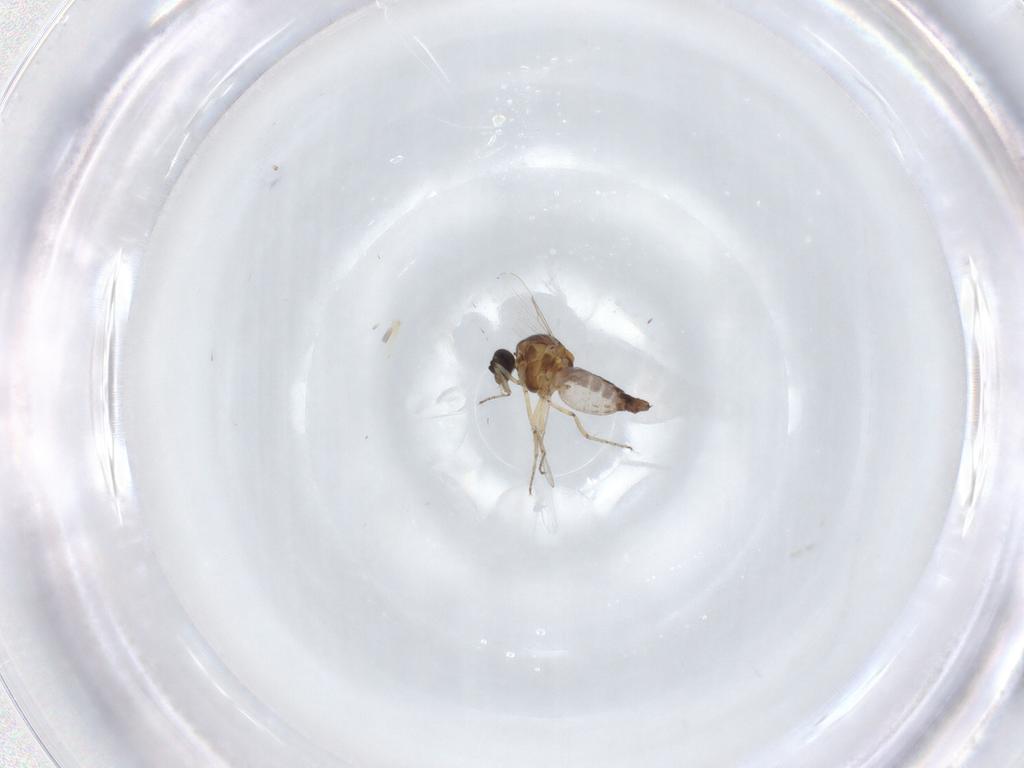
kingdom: Animalia
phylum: Arthropoda
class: Insecta
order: Diptera
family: Ceratopogonidae
